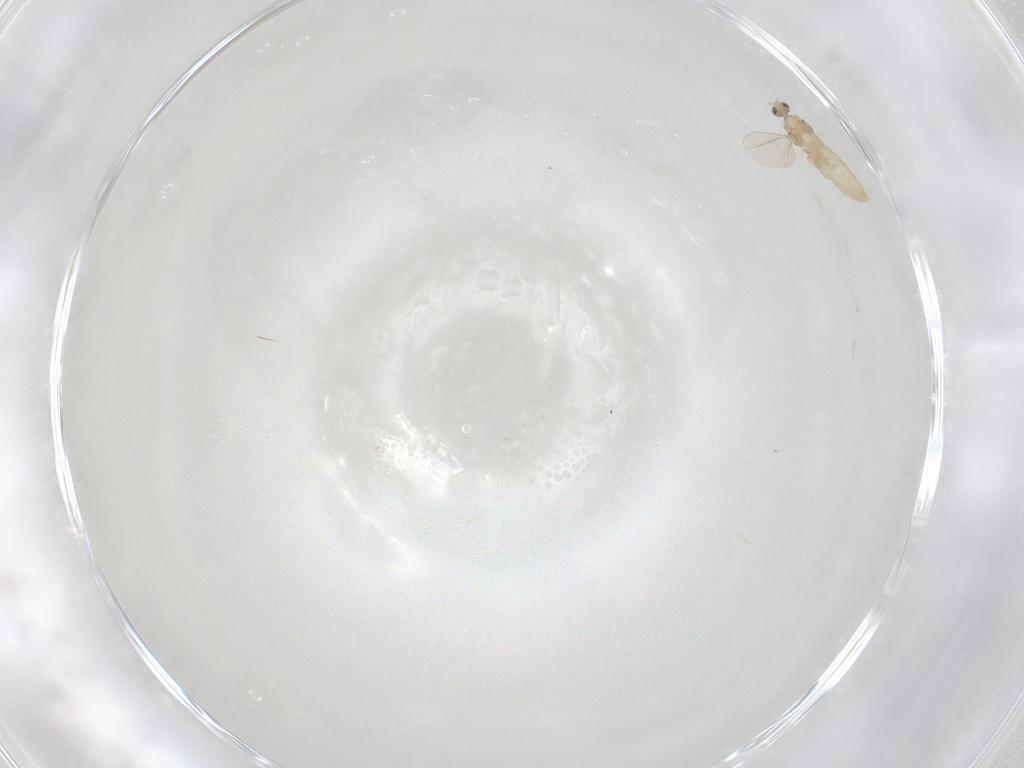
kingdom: Animalia
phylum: Arthropoda
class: Insecta
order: Diptera
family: Cecidomyiidae
